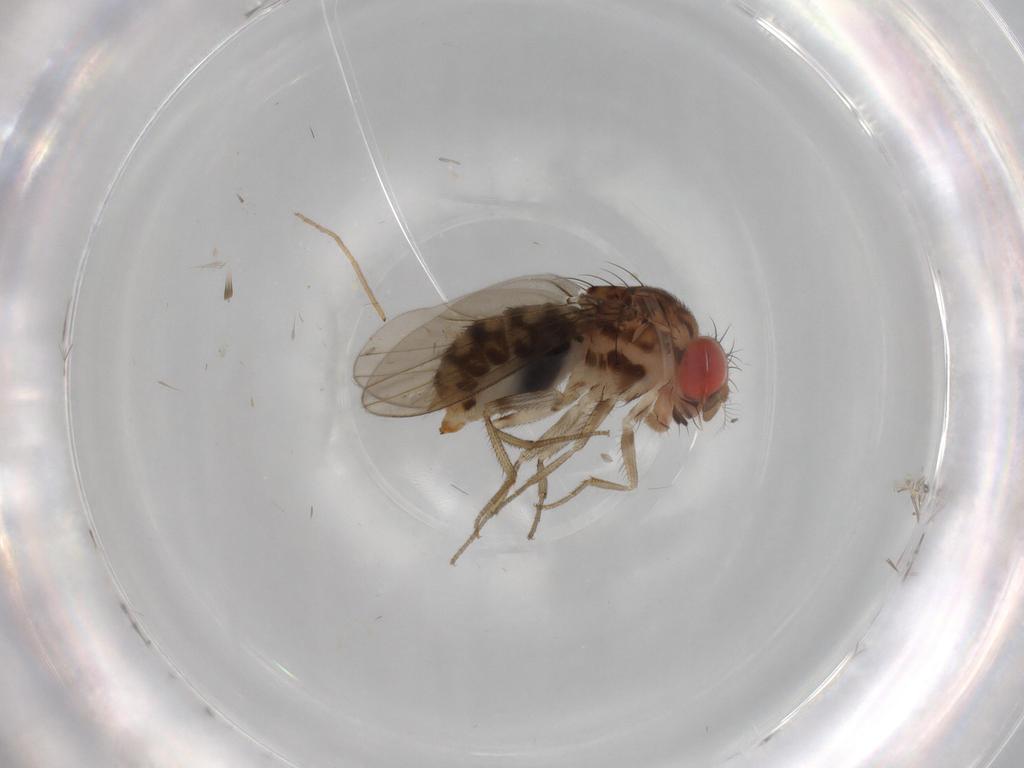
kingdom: Animalia
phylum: Arthropoda
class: Insecta
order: Diptera
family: Drosophilidae
